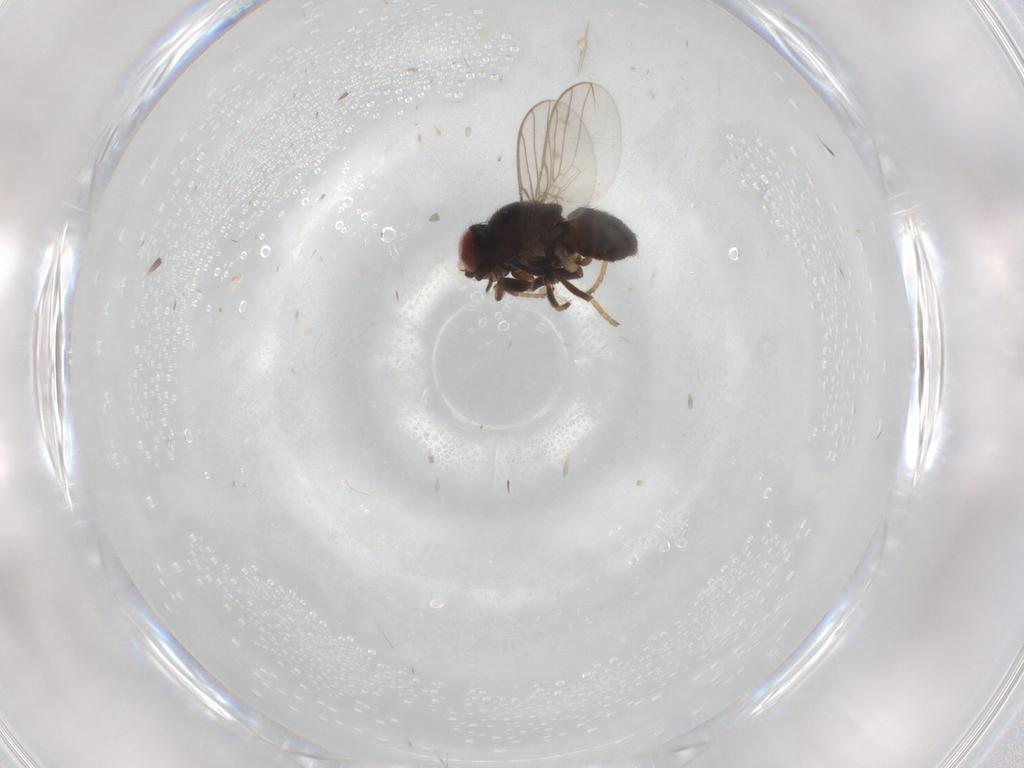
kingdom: Animalia
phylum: Arthropoda
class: Insecta
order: Diptera
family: Chloropidae
